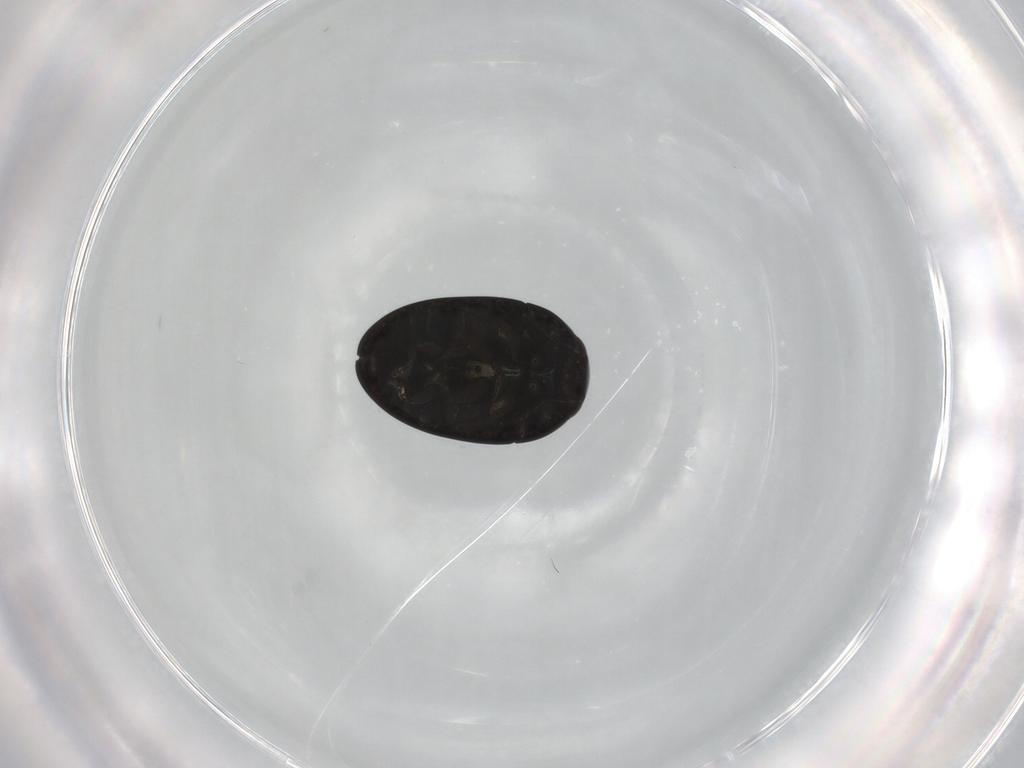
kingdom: Animalia
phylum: Arthropoda
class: Insecta
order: Coleoptera
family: Phalacridae
